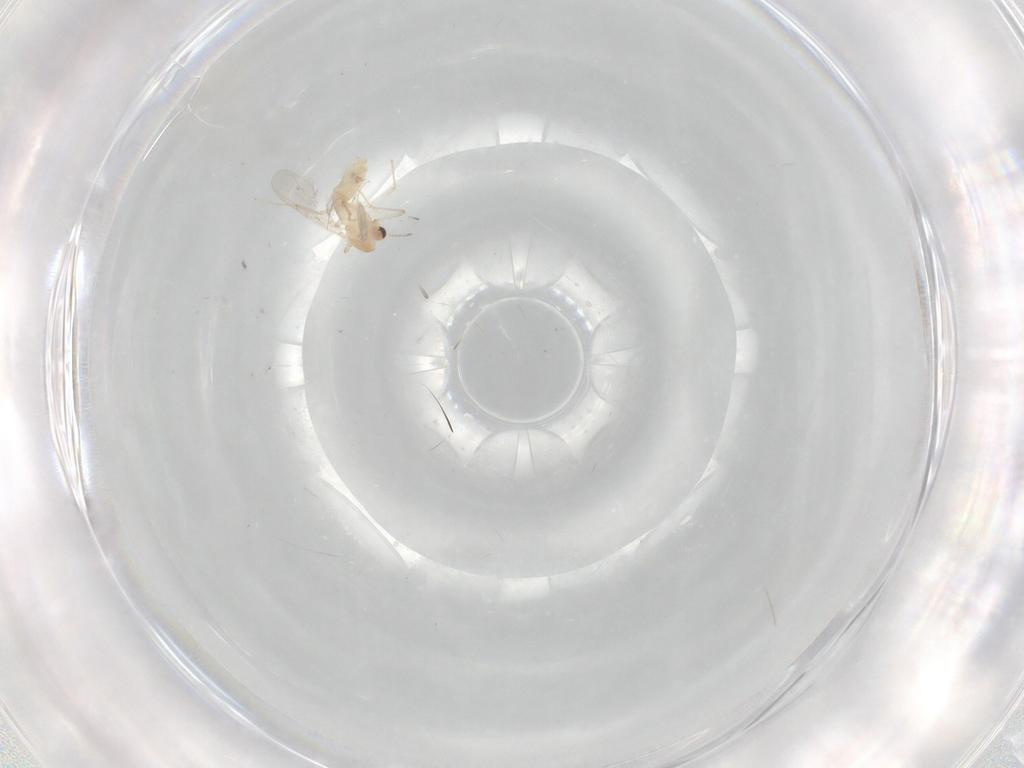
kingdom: Animalia
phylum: Arthropoda
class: Insecta
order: Diptera
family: Chironomidae
